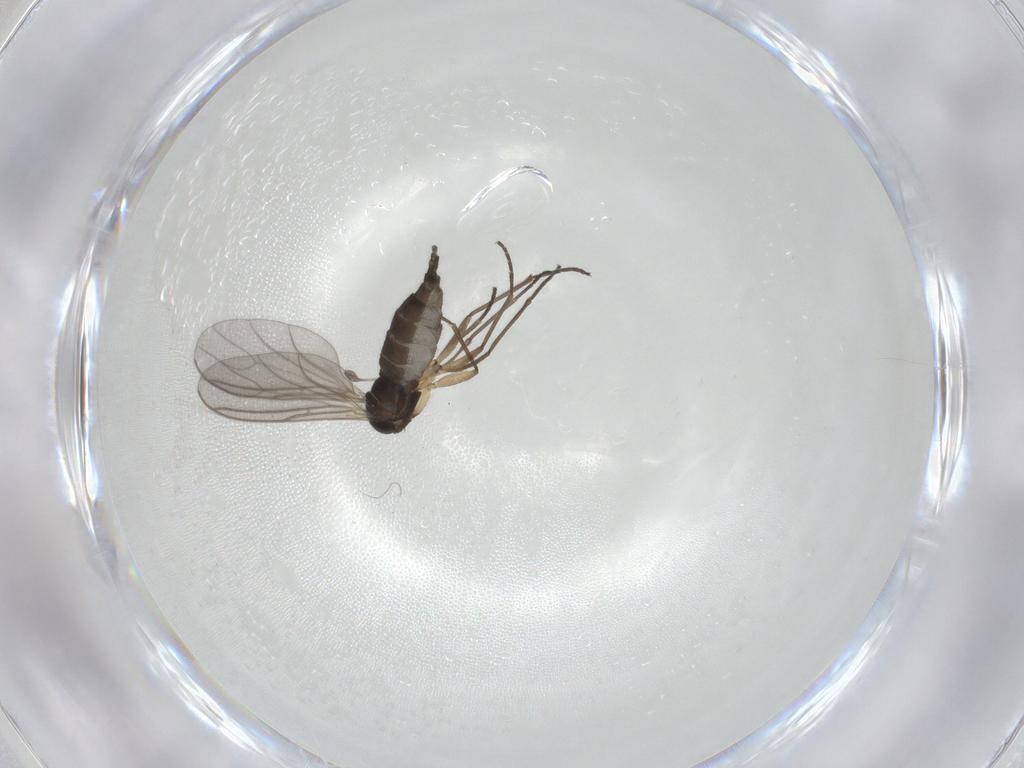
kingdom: Animalia
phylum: Arthropoda
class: Insecta
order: Diptera
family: Sciaridae
